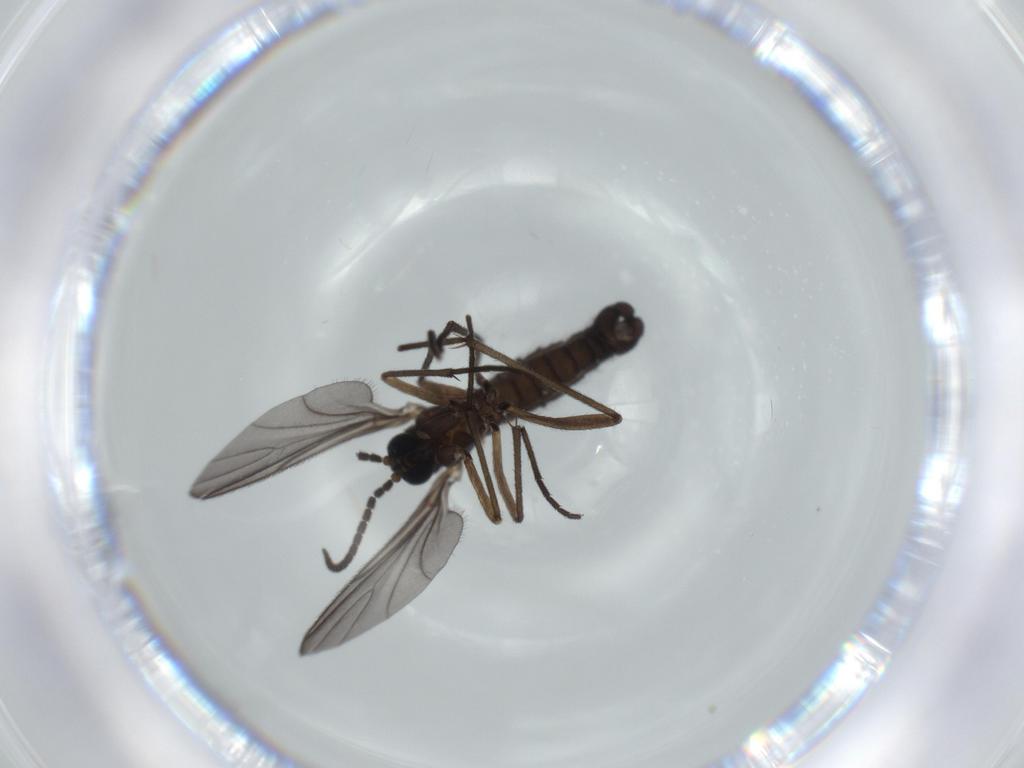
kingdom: Animalia
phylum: Arthropoda
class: Insecta
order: Diptera
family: Sciaridae
